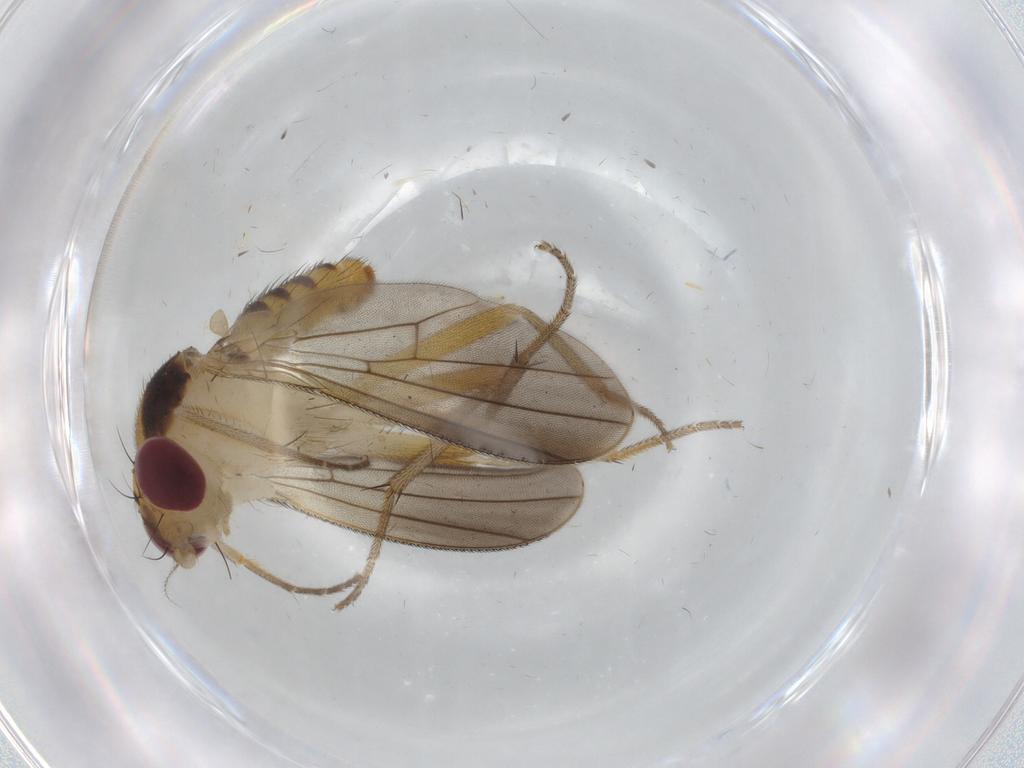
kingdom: Animalia
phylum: Arthropoda
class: Insecta
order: Diptera
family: Clusiidae
